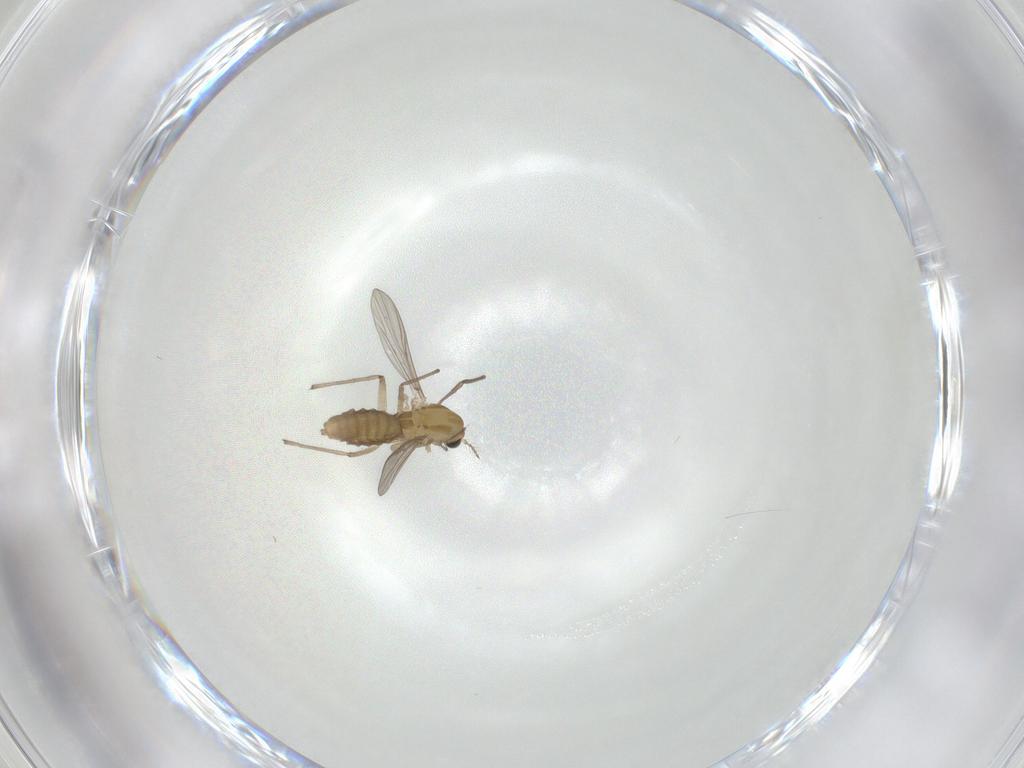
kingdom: Animalia
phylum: Arthropoda
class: Insecta
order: Diptera
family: Chironomidae
